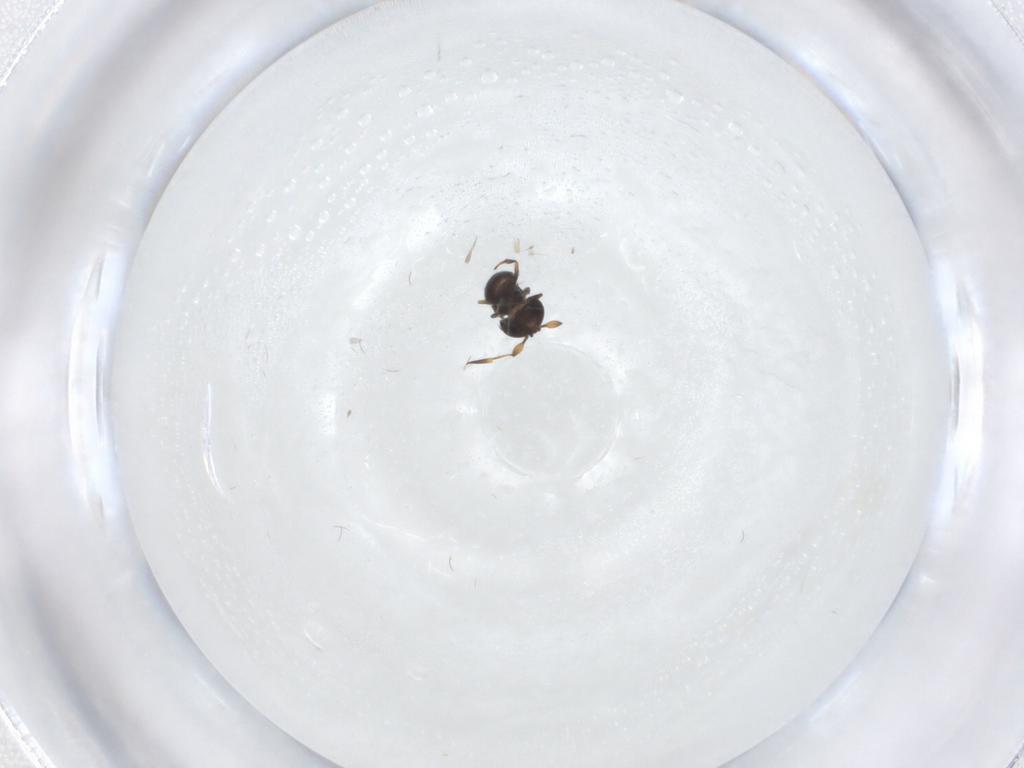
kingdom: Animalia
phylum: Arthropoda
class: Insecta
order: Hymenoptera
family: Scelionidae
